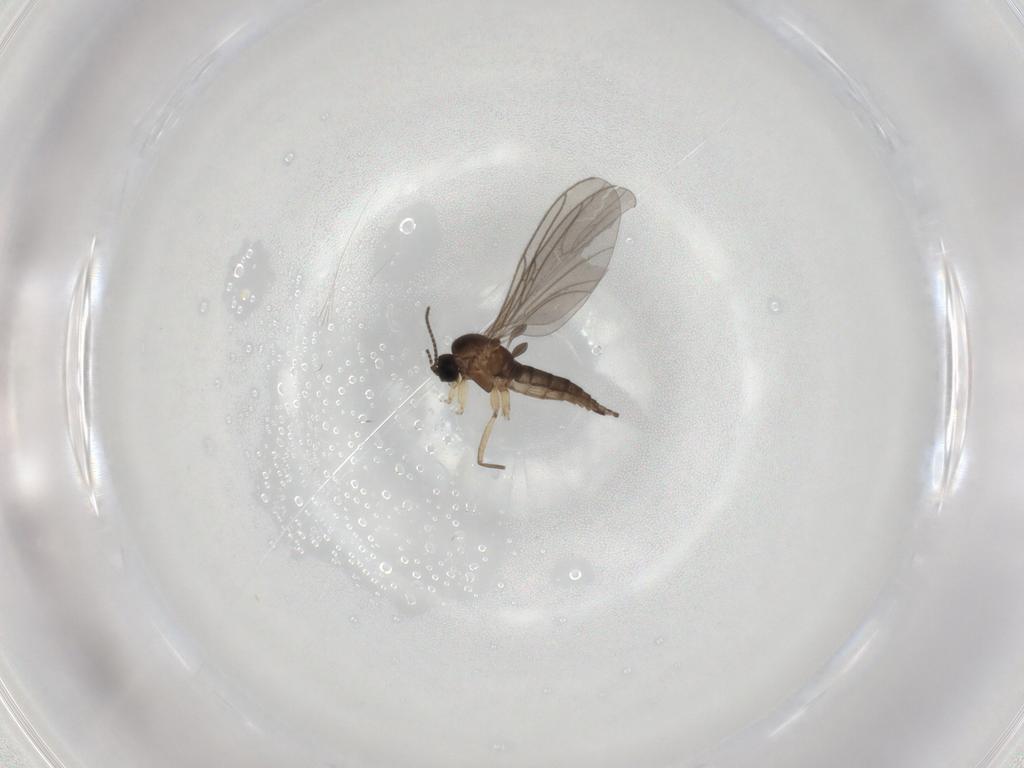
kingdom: Animalia
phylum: Arthropoda
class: Insecta
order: Diptera
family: Sciaridae
